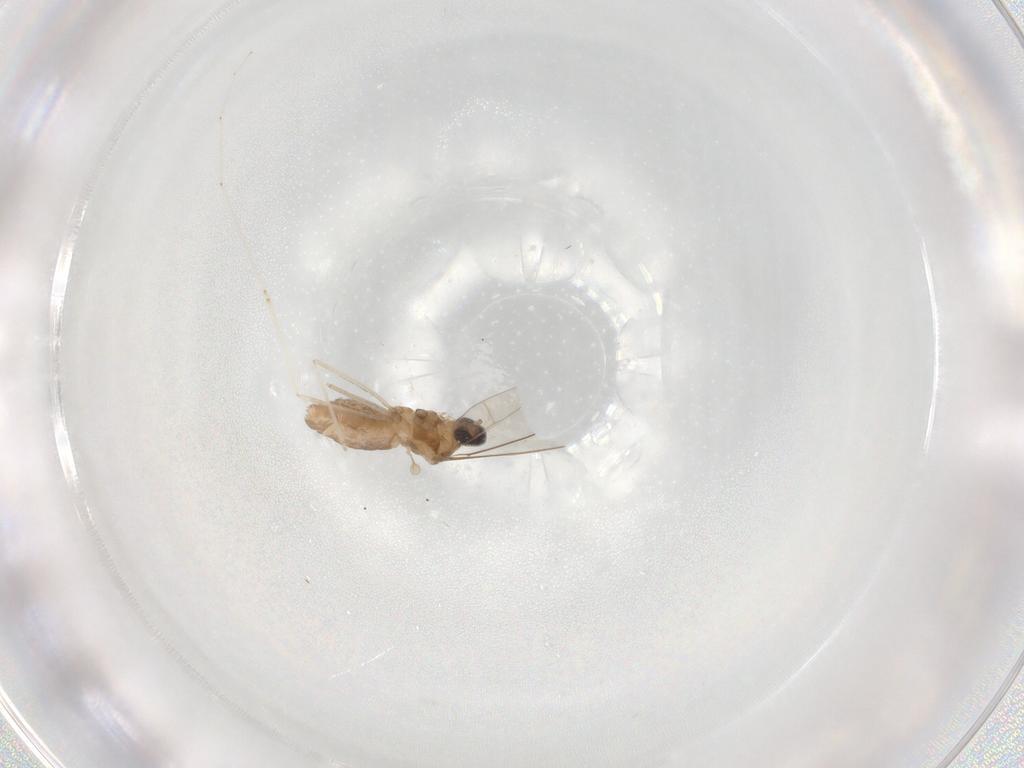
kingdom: Animalia
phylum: Arthropoda
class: Insecta
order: Diptera
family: Cecidomyiidae
